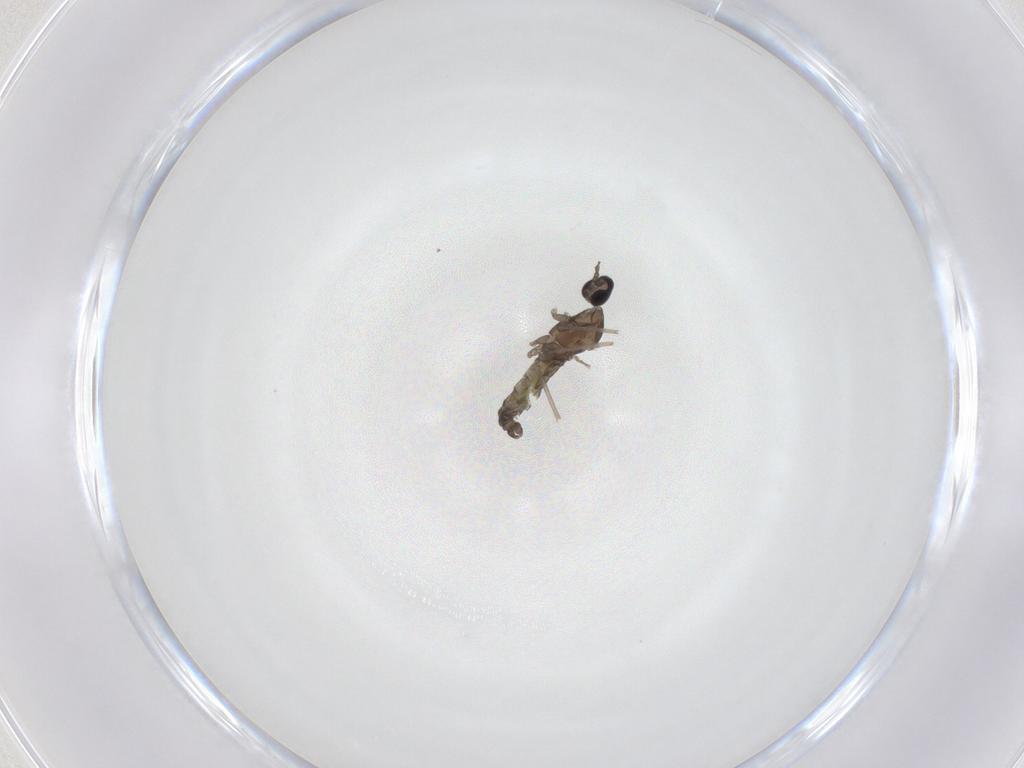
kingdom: Animalia
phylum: Arthropoda
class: Insecta
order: Diptera
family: Cecidomyiidae
